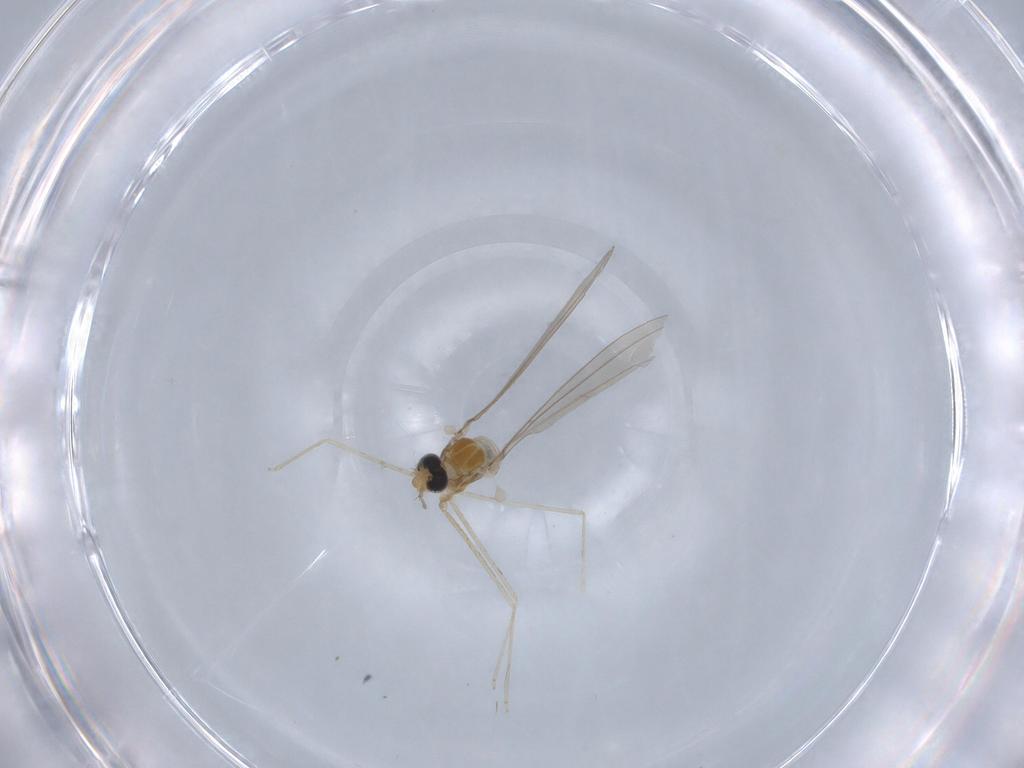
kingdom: Animalia
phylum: Arthropoda
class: Insecta
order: Diptera
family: Cecidomyiidae
